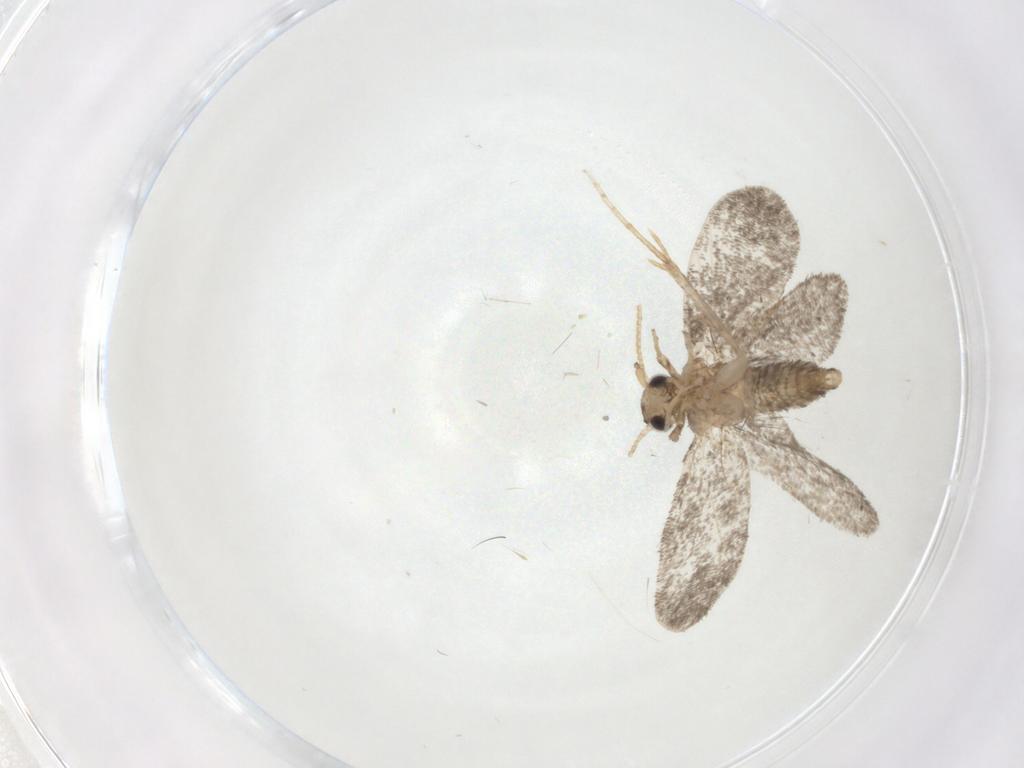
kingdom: Animalia
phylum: Arthropoda
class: Insecta
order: Lepidoptera
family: Psychidae
